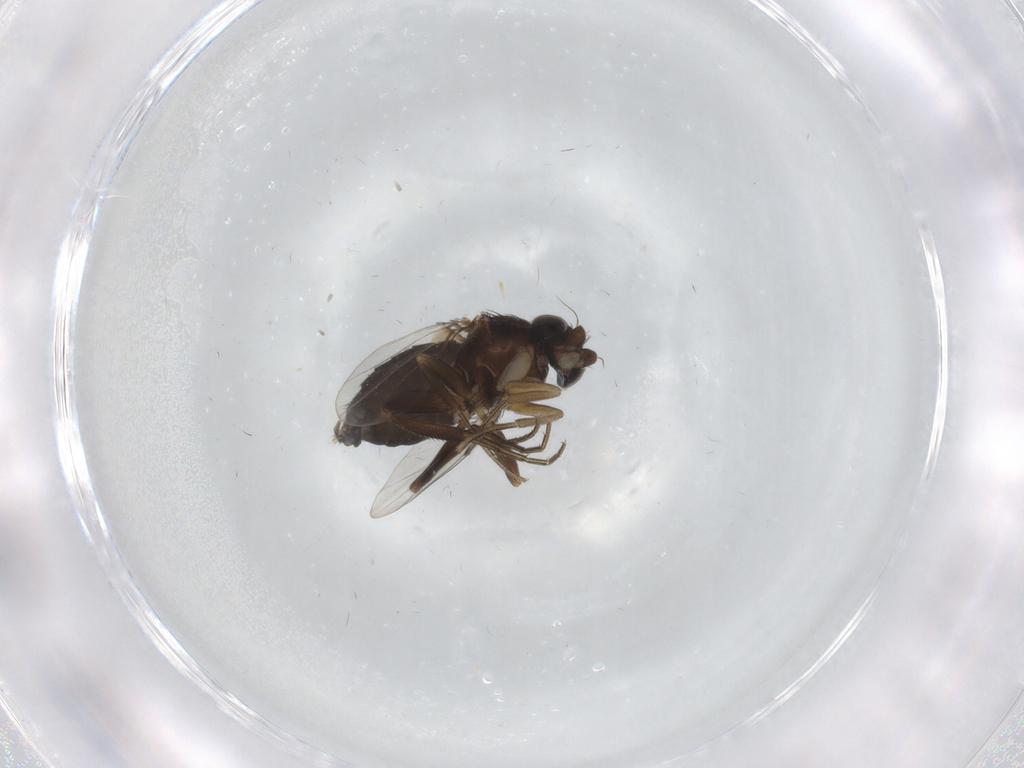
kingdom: Animalia
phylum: Arthropoda
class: Insecta
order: Diptera
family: Phoridae
